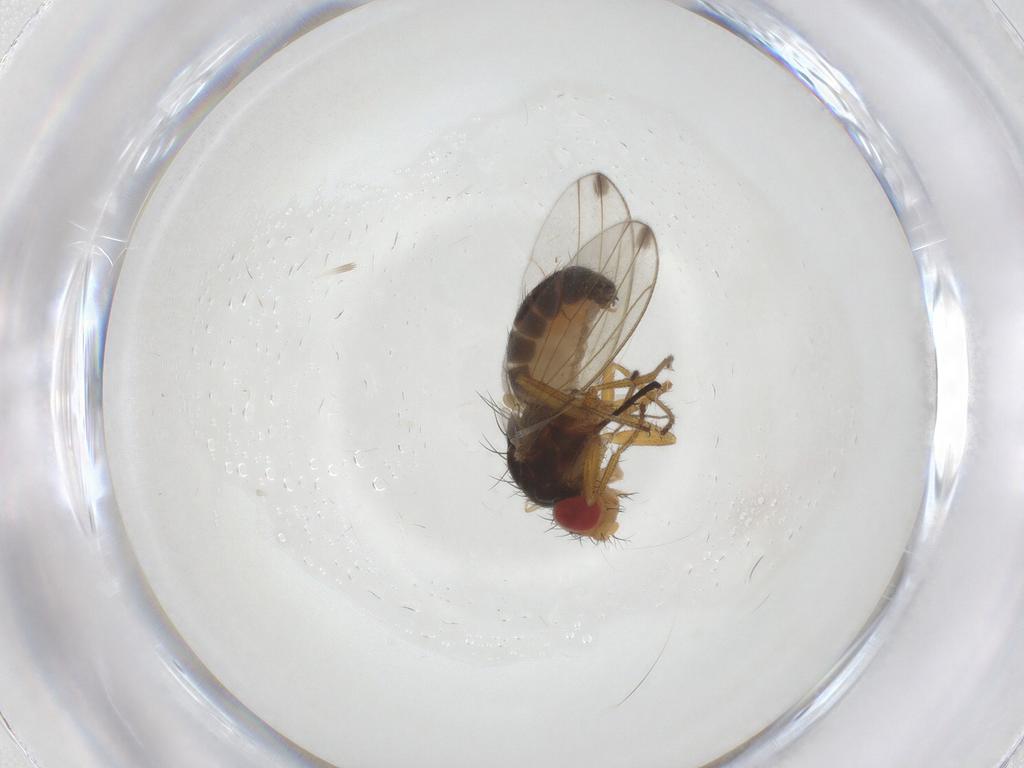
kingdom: Animalia
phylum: Arthropoda
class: Insecta
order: Diptera
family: Drosophilidae
